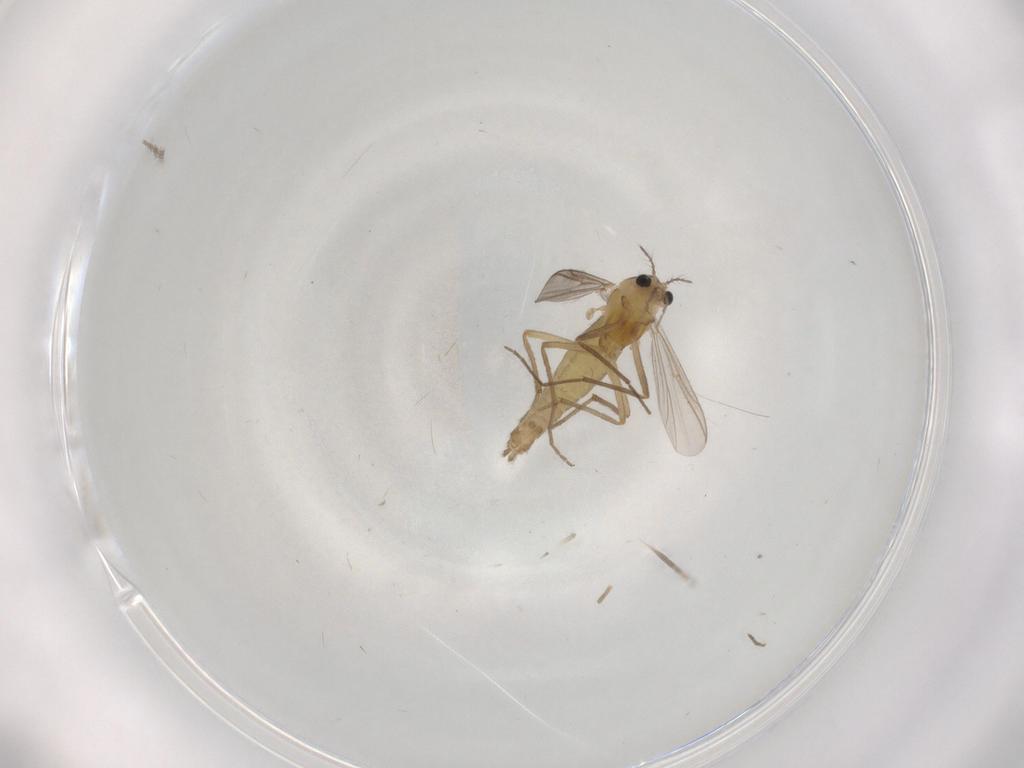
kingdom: Animalia
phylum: Arthropoda
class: Insecta
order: Diptera
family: Chironomidae
